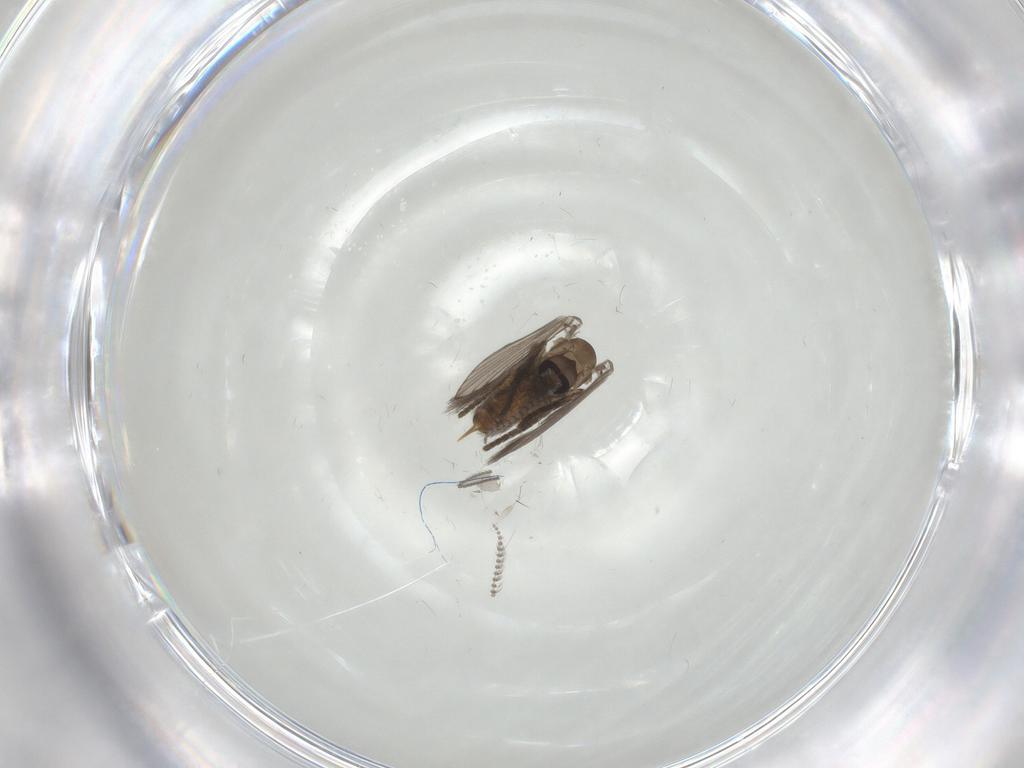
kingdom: Animalia
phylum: Arthropoda
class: Insecta
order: Diptera
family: Psychodidae
